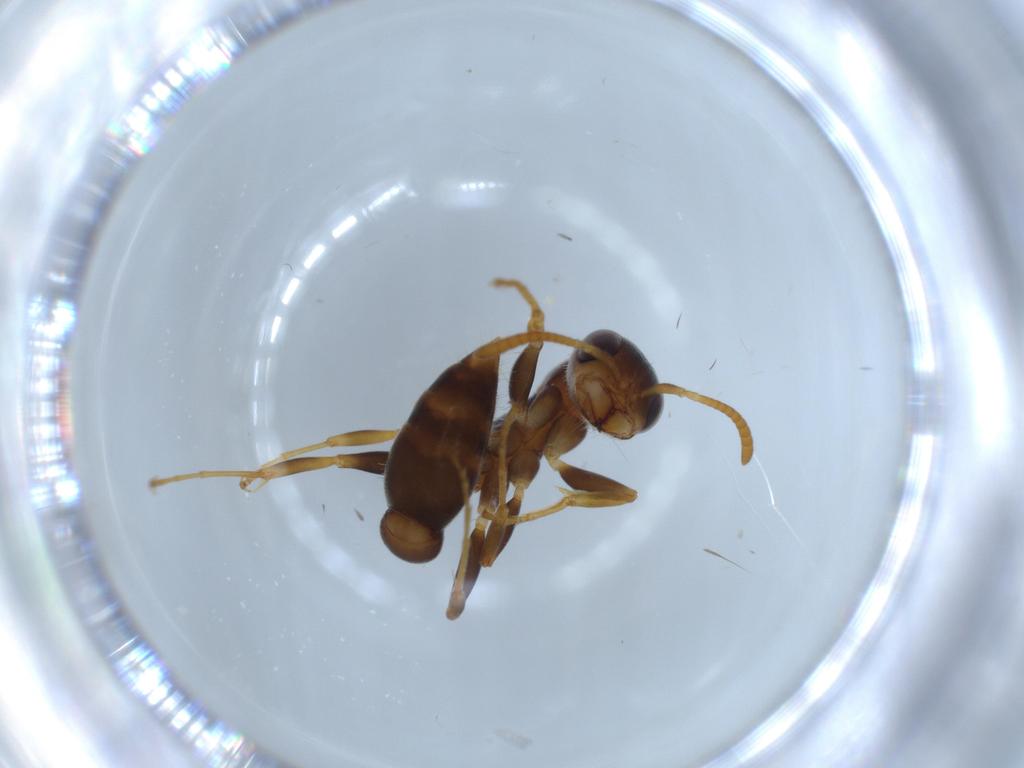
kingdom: Animalia
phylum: Arthropoda
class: Insecta
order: Hymenoptera
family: Formicidae
